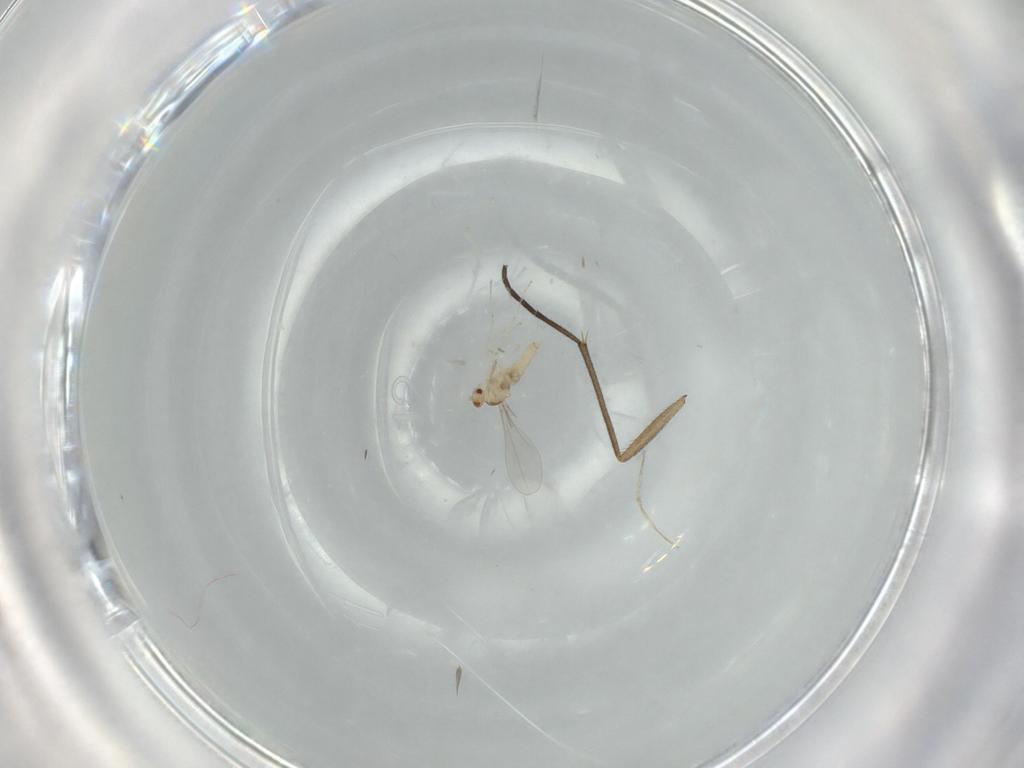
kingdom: Animalia
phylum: Arthropoda
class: Insecta
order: Diptera
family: Cecidomyiidae
